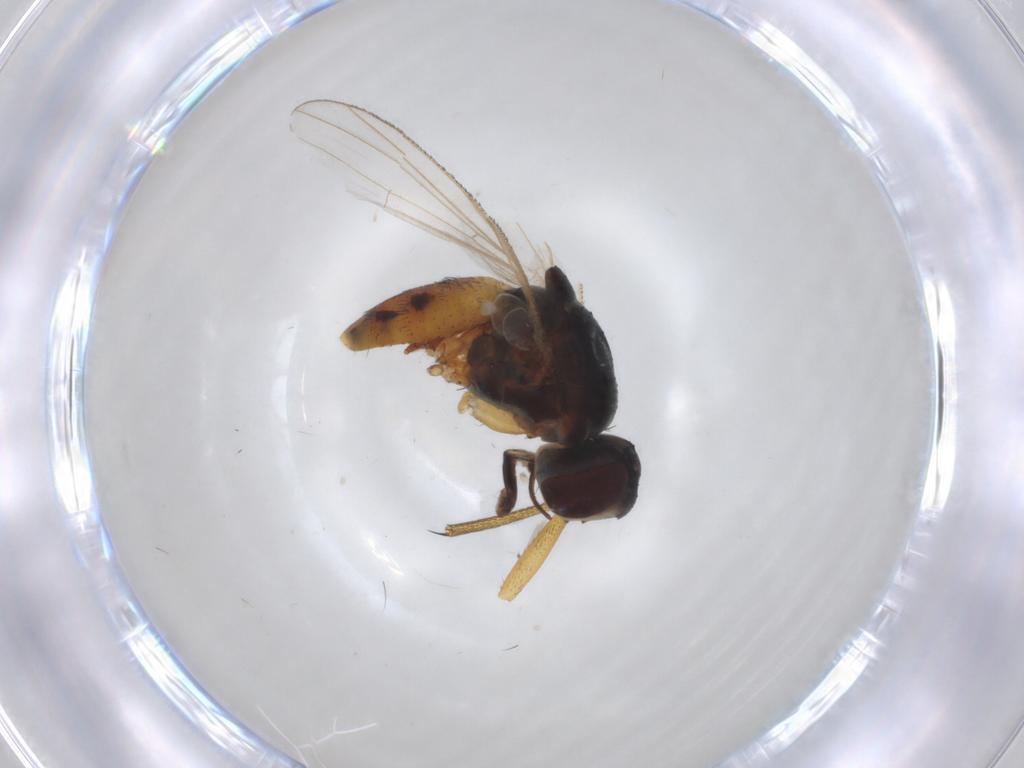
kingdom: Animalia
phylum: Arthropoda
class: Insecta
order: Diptera
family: Muscidae
